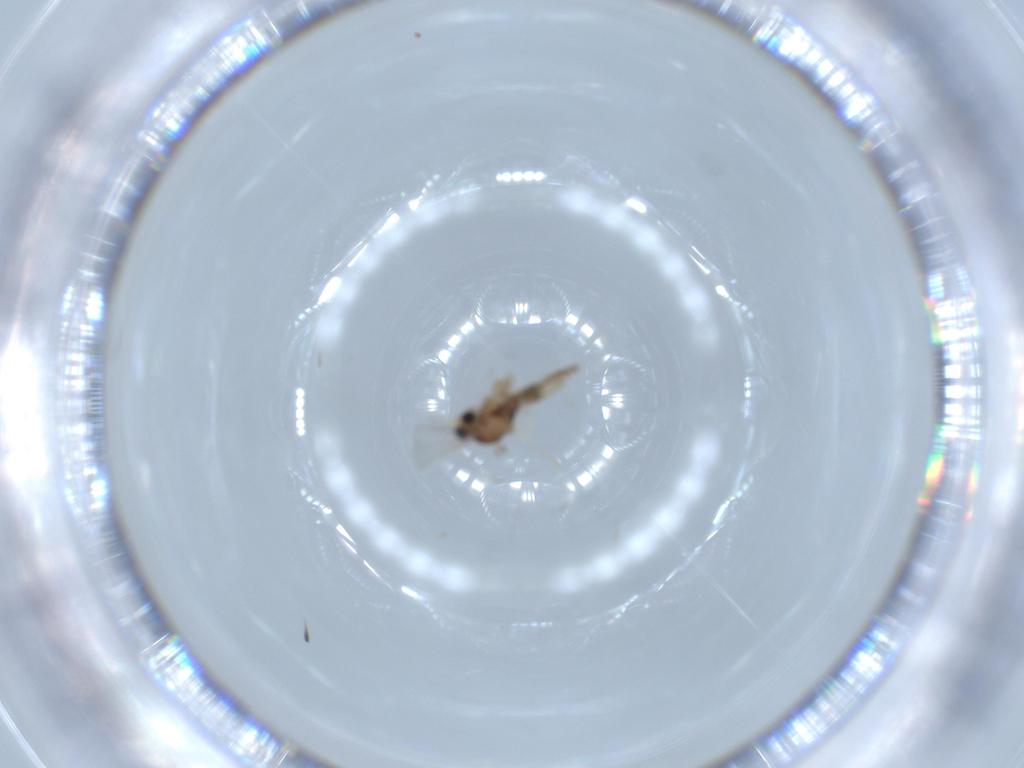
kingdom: Animalia
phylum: Arthropoda
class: Insecta
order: Diptera
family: Cecidomyiidae
